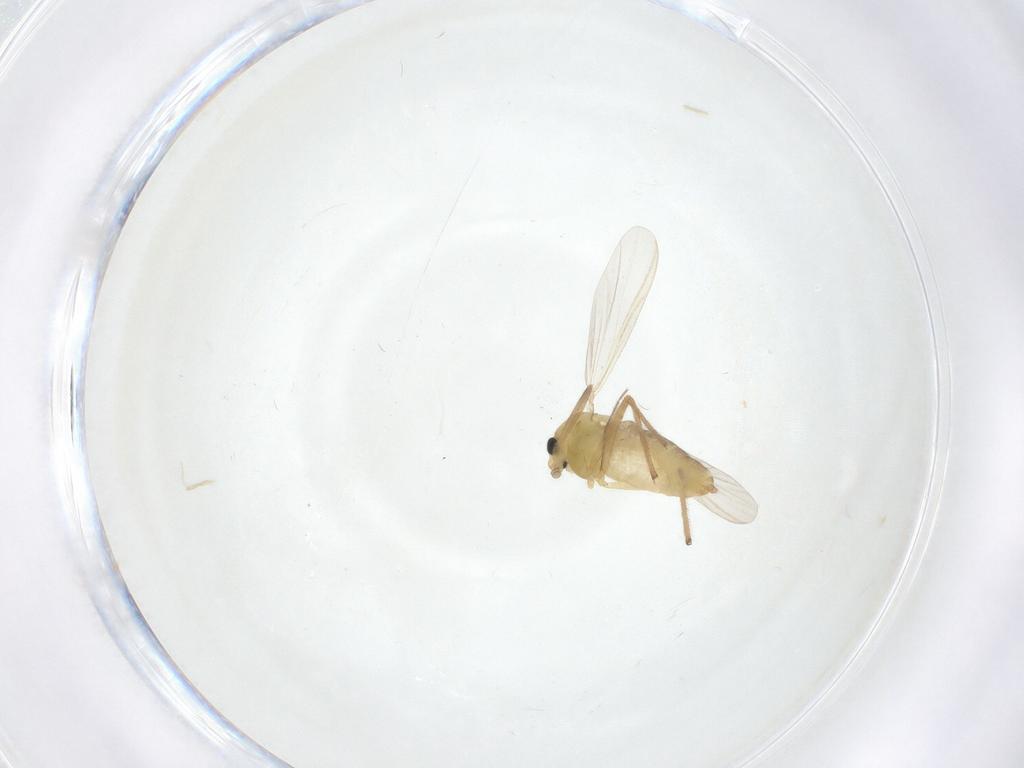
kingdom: Animalia
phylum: Arthropoda
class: Insecta
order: Diptera
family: Chironomidae
